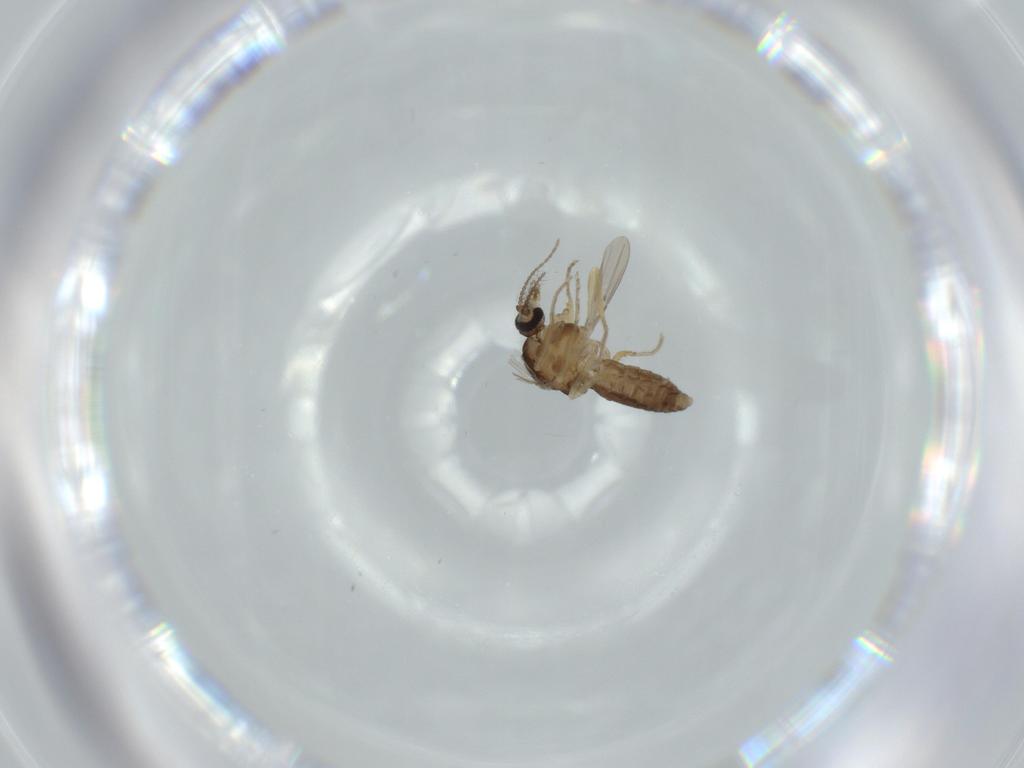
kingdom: Animalia
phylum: Arthropoda
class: Insecta
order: Diptera
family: Ceratopogonidae
